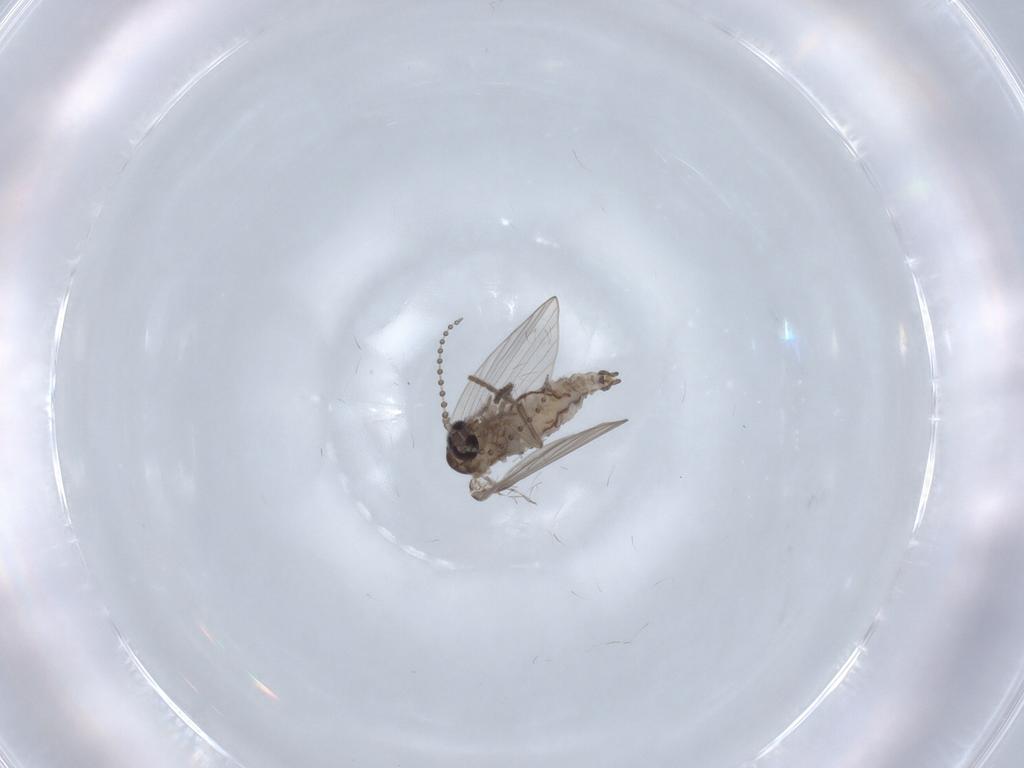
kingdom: Animalia
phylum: Arthropoda
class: Insecta
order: Diptera
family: Psychodidae
